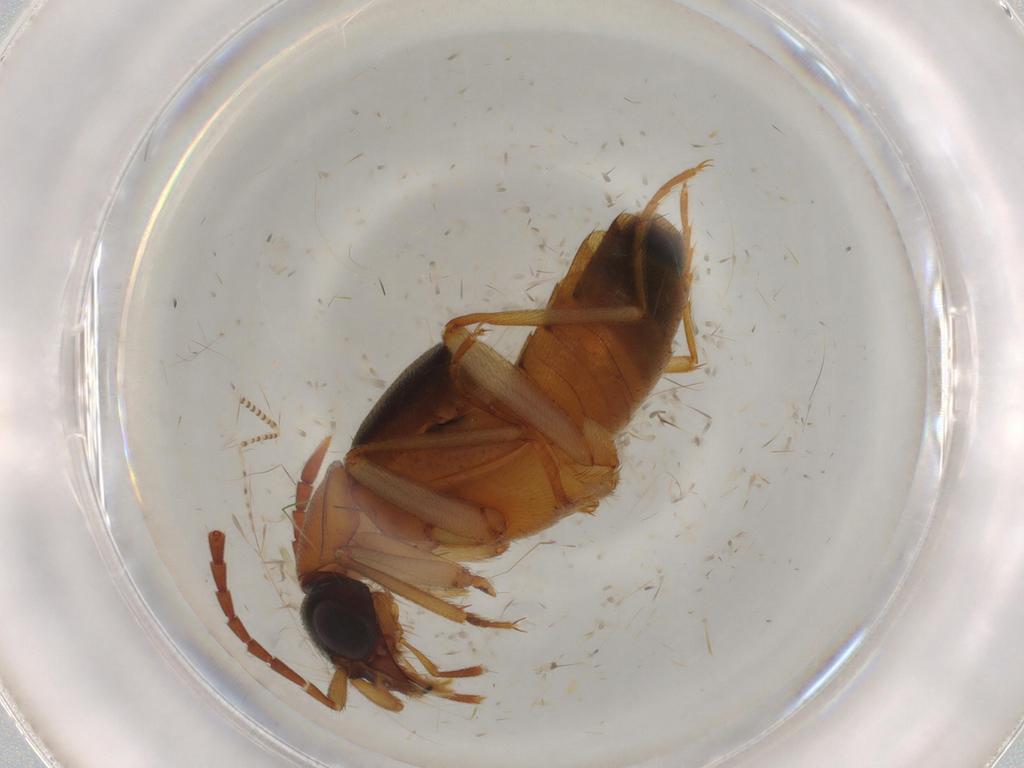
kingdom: Animalia
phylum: Arthropoda
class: Insecta
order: Coleoptera
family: Staphylinidae
